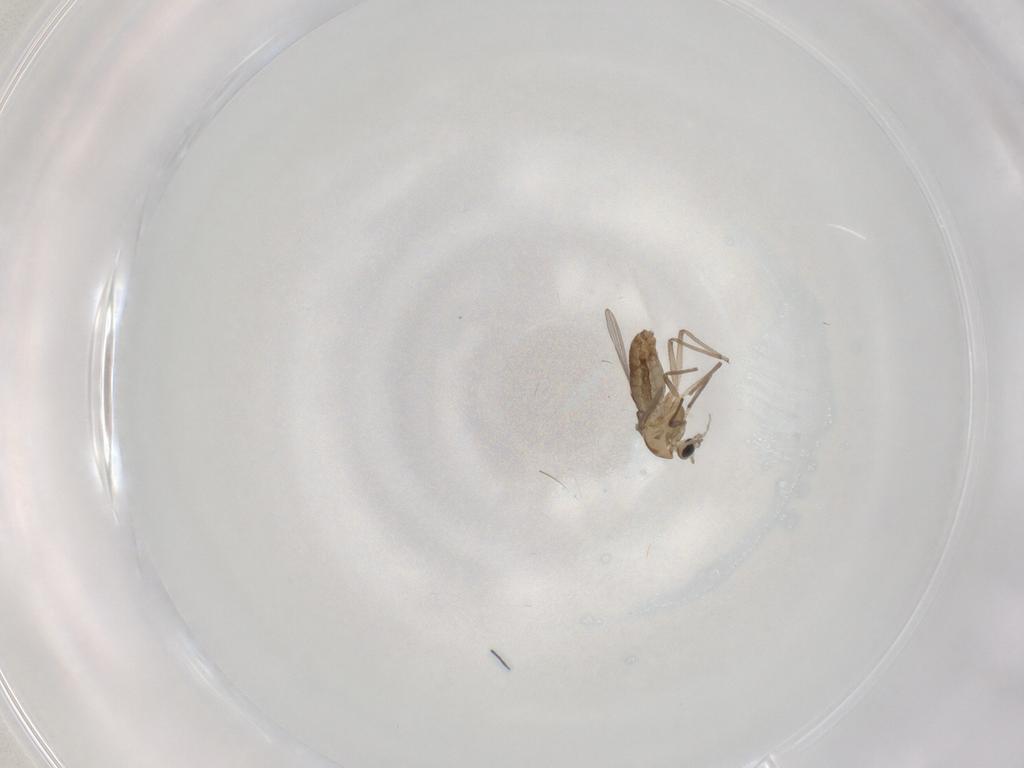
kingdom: Animalia
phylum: Arthropoda
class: Insecta
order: Diptera
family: Chironomidae
